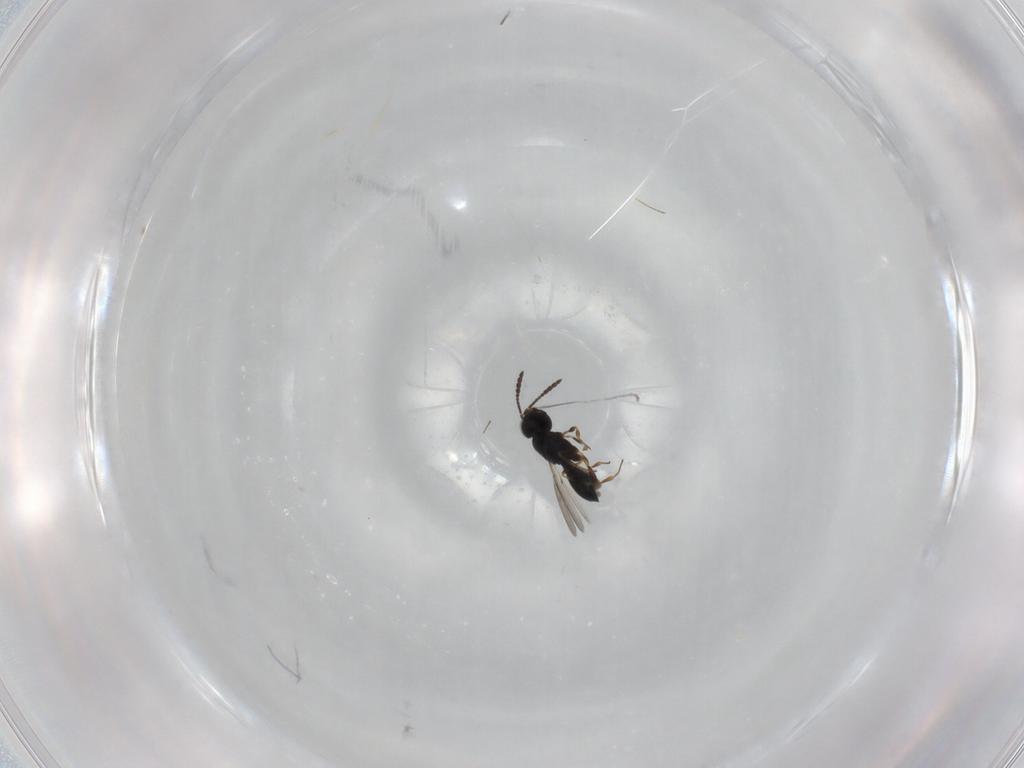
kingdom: Animalia
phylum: Arthropoda
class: Insecta
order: Hymenoptera
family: Scelionidae
